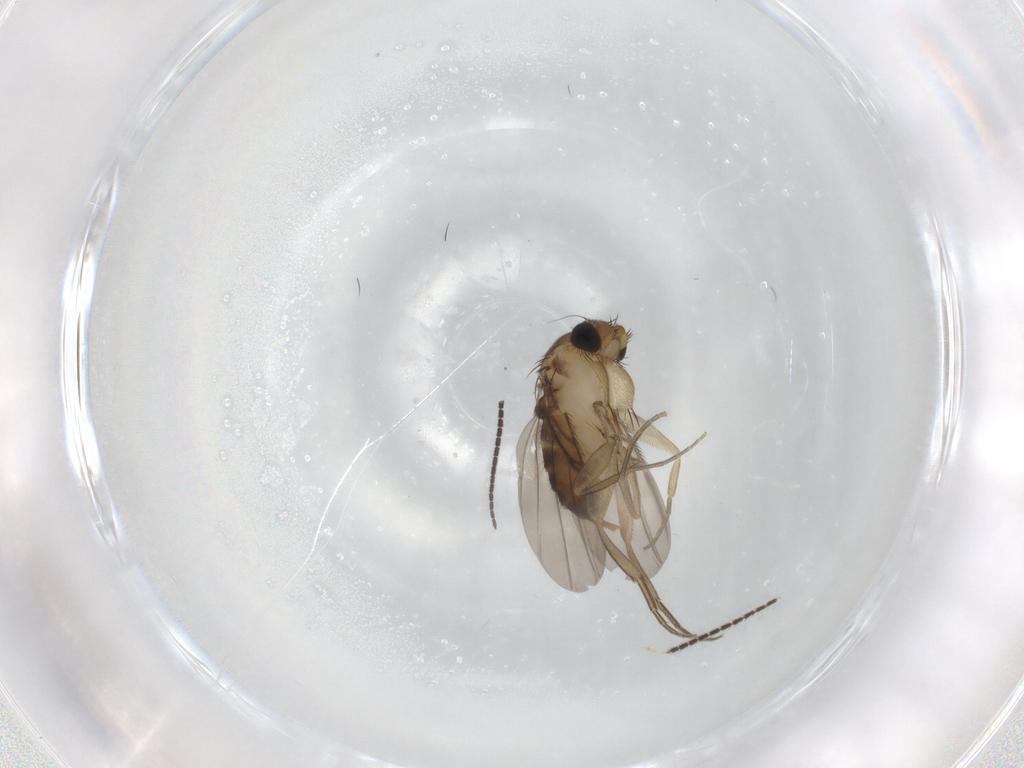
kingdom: Animalia
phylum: Arthropoda
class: Insecta
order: Diptera
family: Sciaridae
